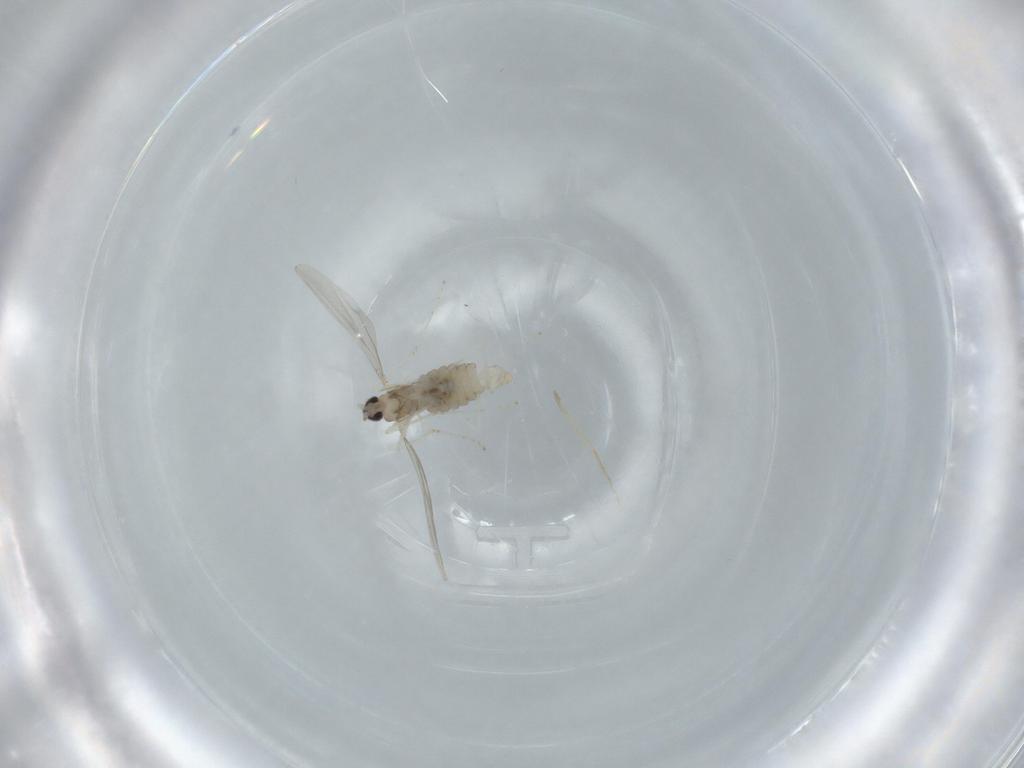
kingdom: Animalia
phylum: Arthropoda
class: Insecta
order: Diptera
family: Cecidomyiidae
